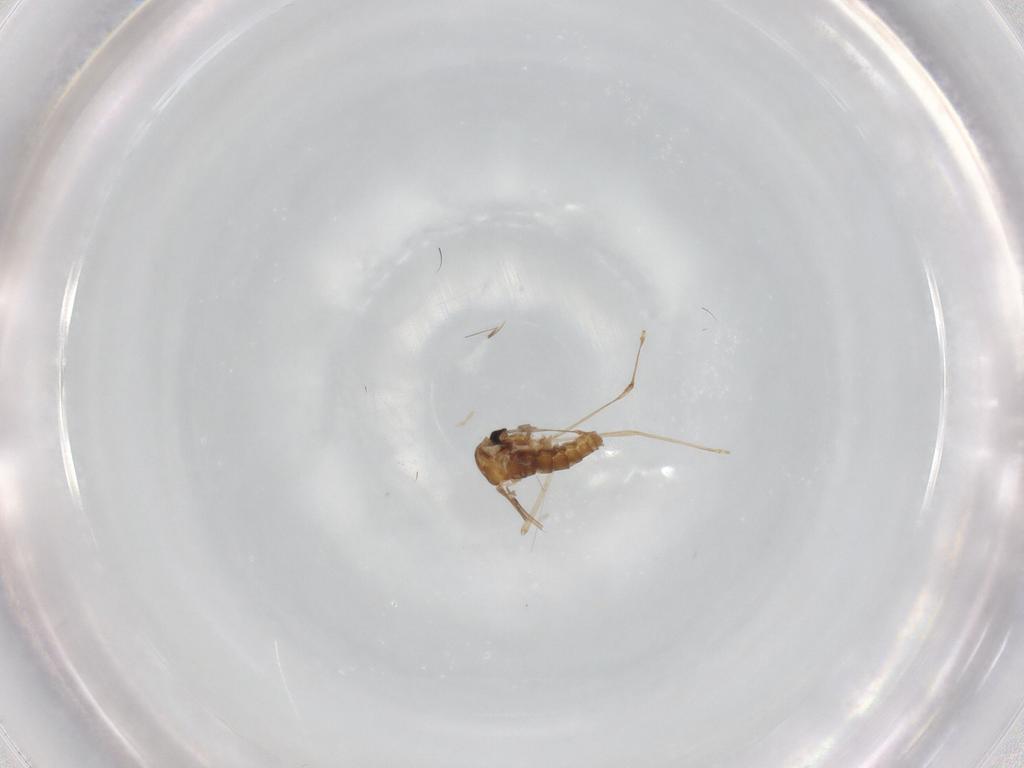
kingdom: Animalia
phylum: Arthropoda
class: Insecta
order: Diptera
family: Cecidomyiidae
